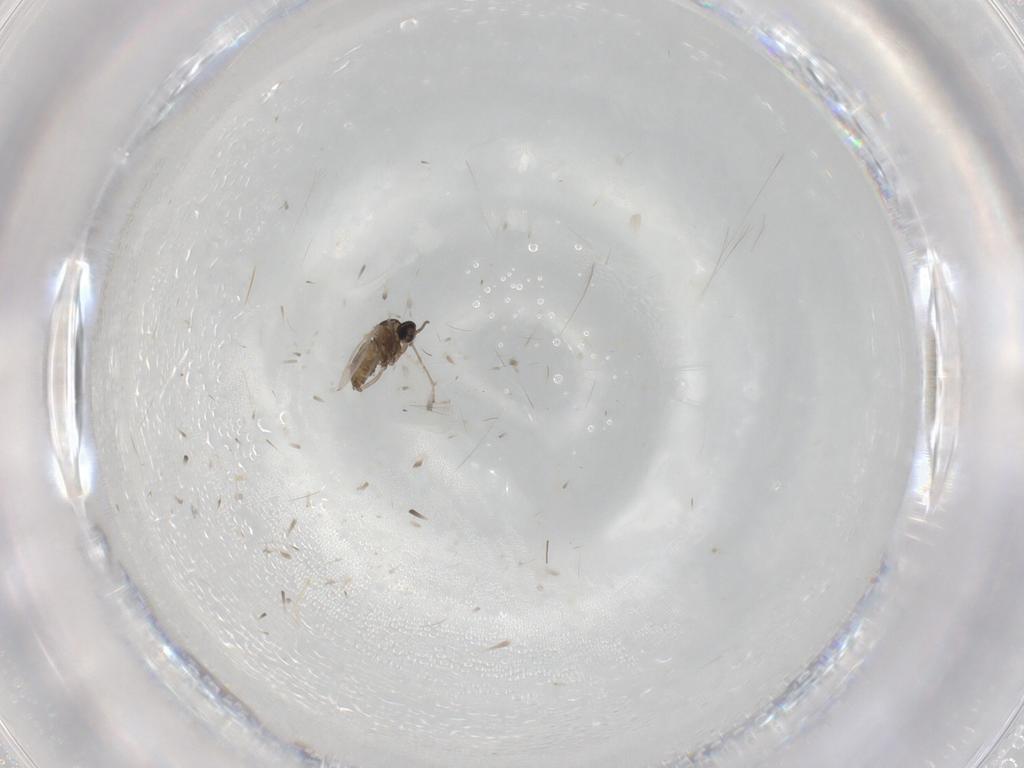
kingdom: Animalia
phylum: Arthropoda
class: Insecta
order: Diptera
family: Cecidomyiidae
